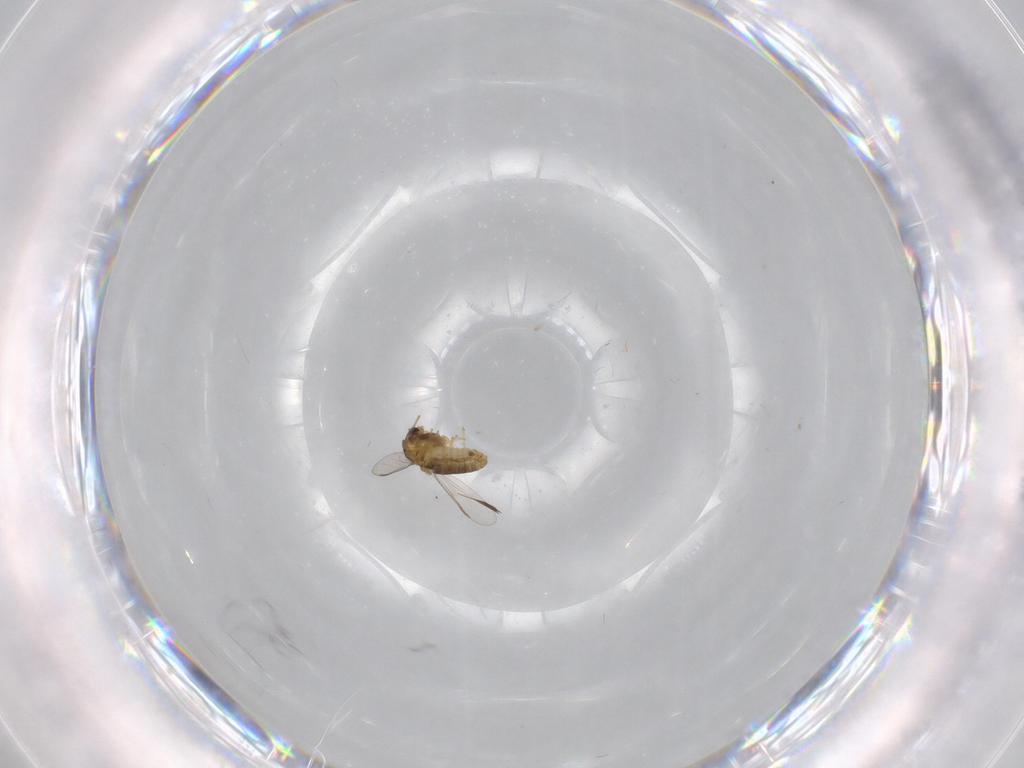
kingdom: Animalia
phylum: Arthropoda
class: Insecta
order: Diptera
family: Chironomidae
